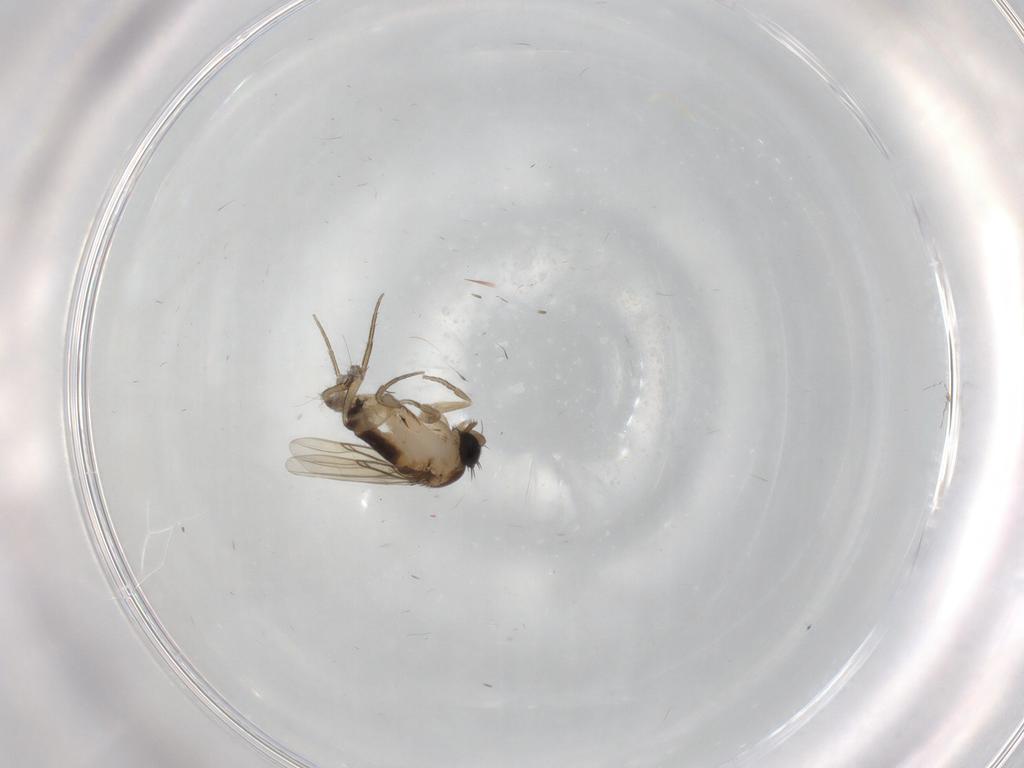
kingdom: Animalia
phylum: Arthropoda
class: Insecta
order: Diptera
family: Phoridae
